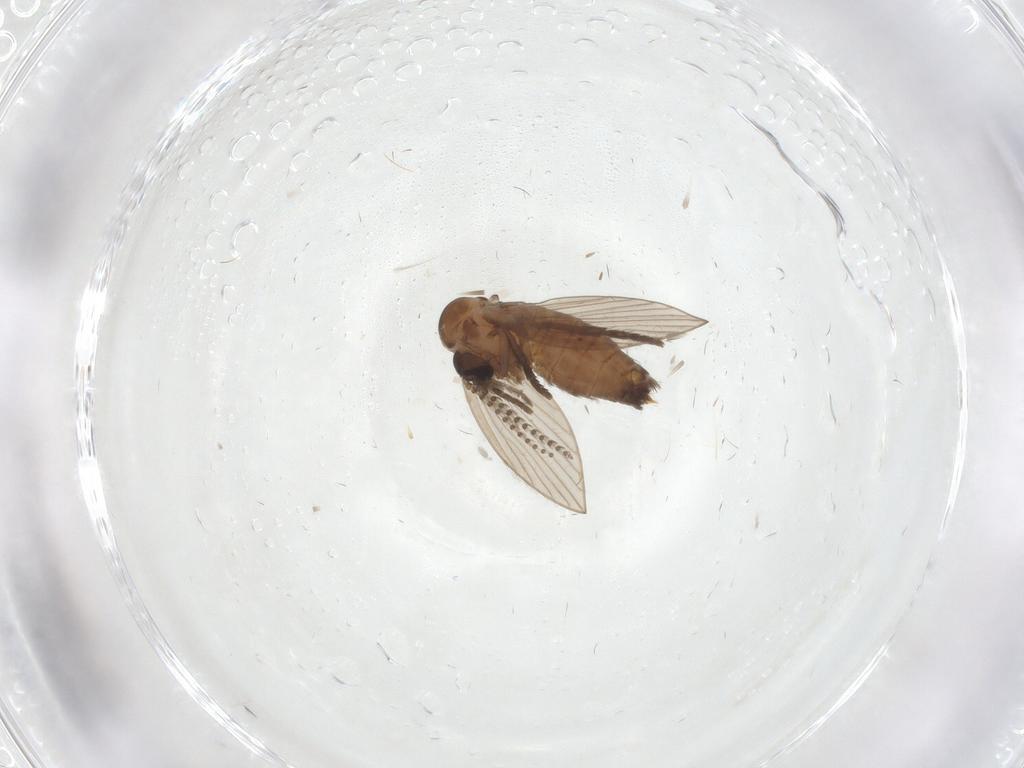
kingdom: Animalia
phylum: Arthropoda
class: Insecta
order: Diptera
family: Psychodidae
